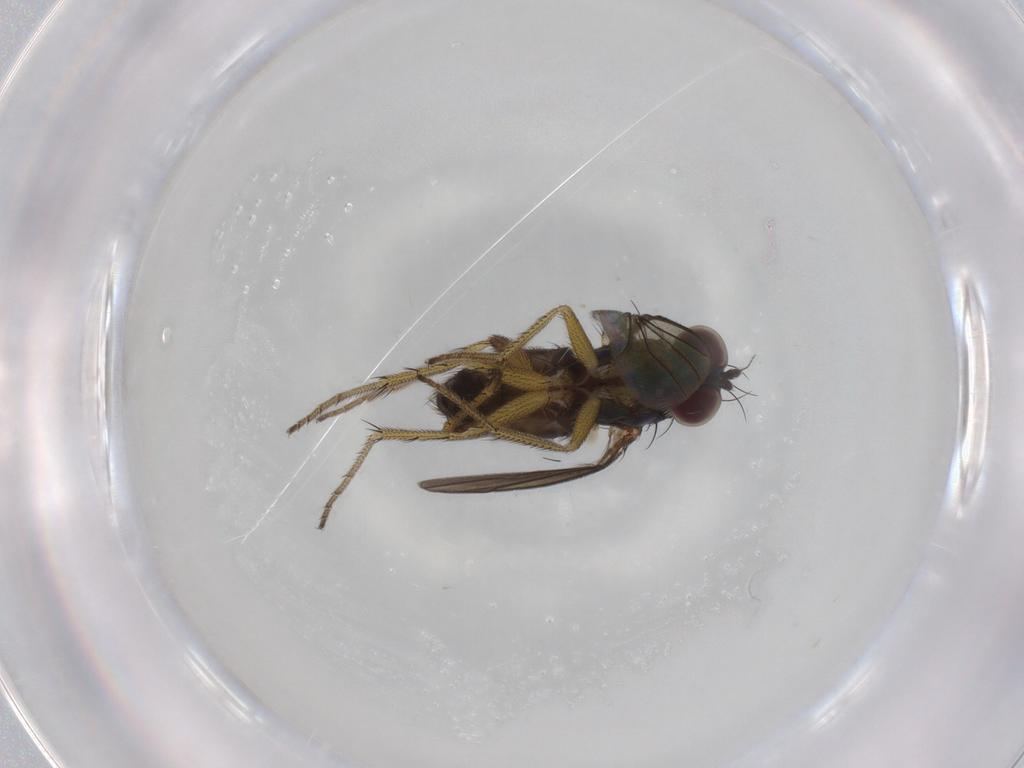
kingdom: Animalia
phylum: Arthropoda
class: Insecta
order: Diptera
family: Dolichopodidae
